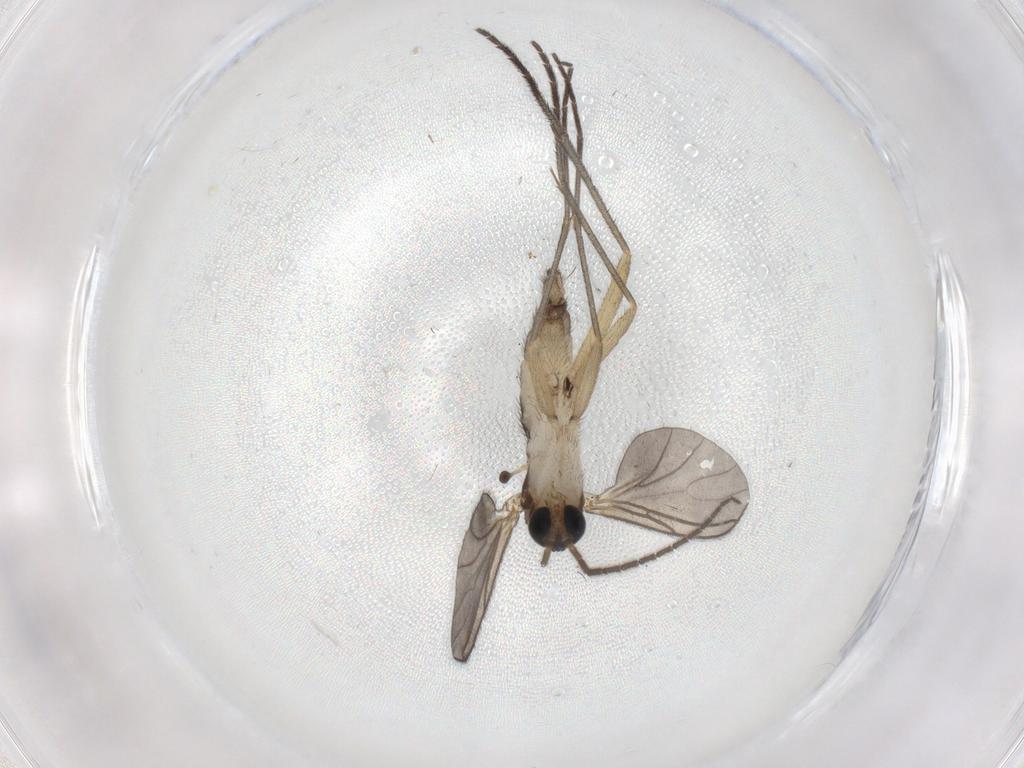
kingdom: Animalia
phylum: Arthropoda
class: Insecta
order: Diptera
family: Sciaridae
